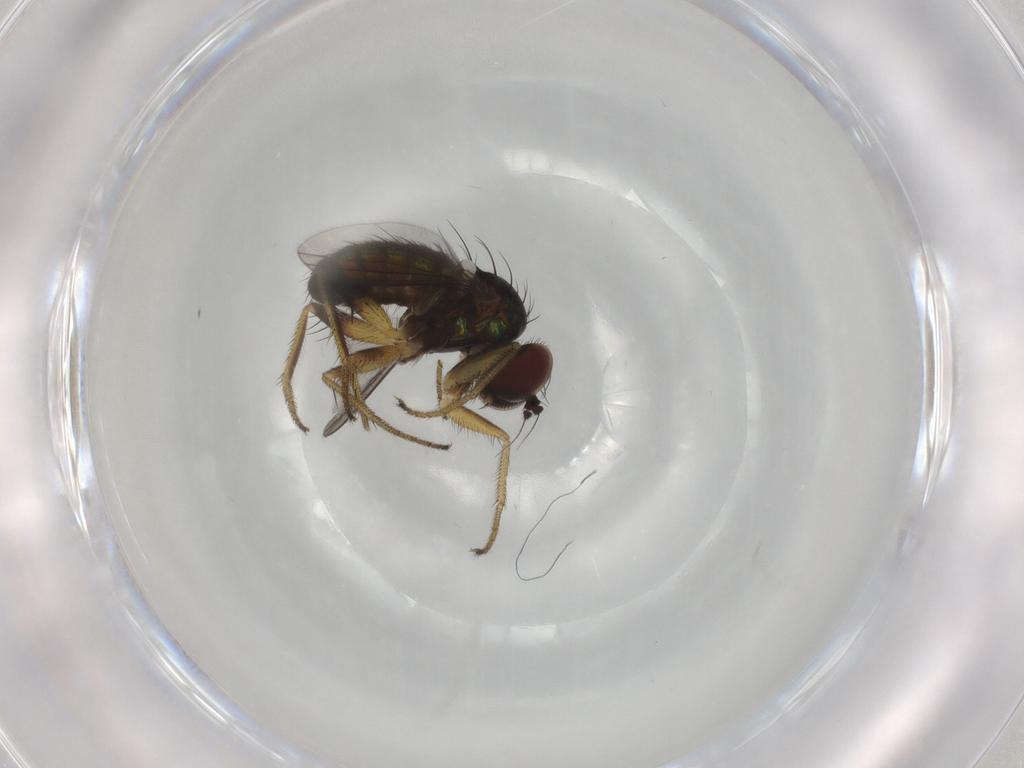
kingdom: Animalia
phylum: Arthropoda
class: Insecta
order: Diptera
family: Dolichopodidae
